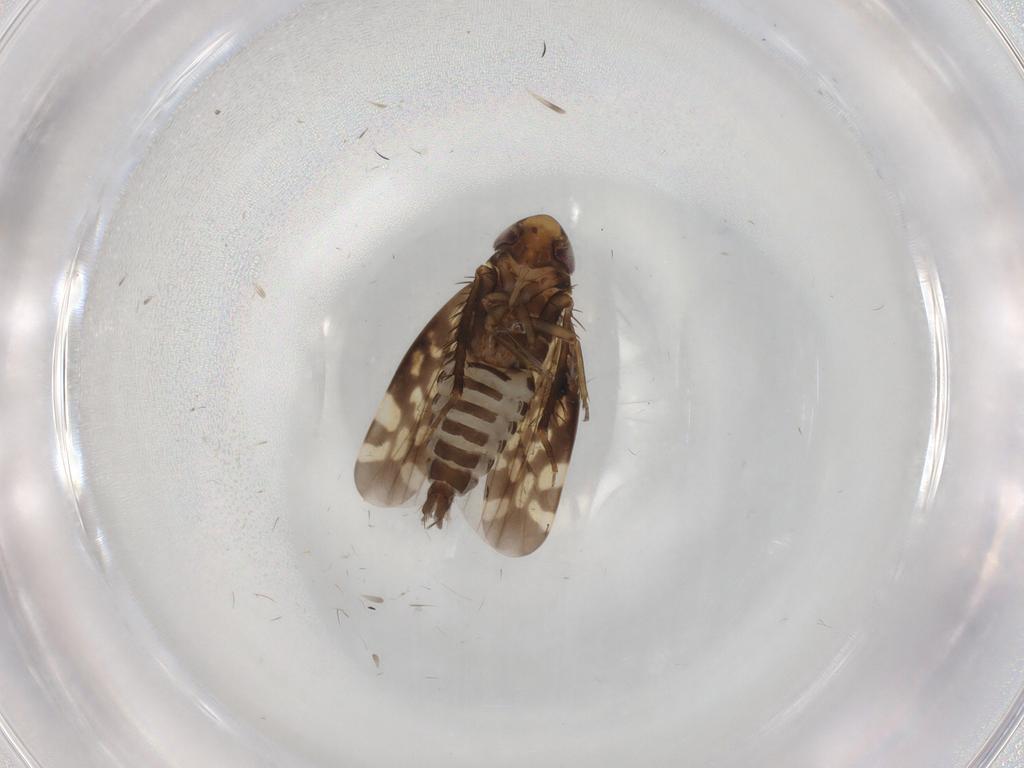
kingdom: Animalia
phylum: Arthropoda
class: Insecta
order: Hemiptera
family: Cicadellidae
